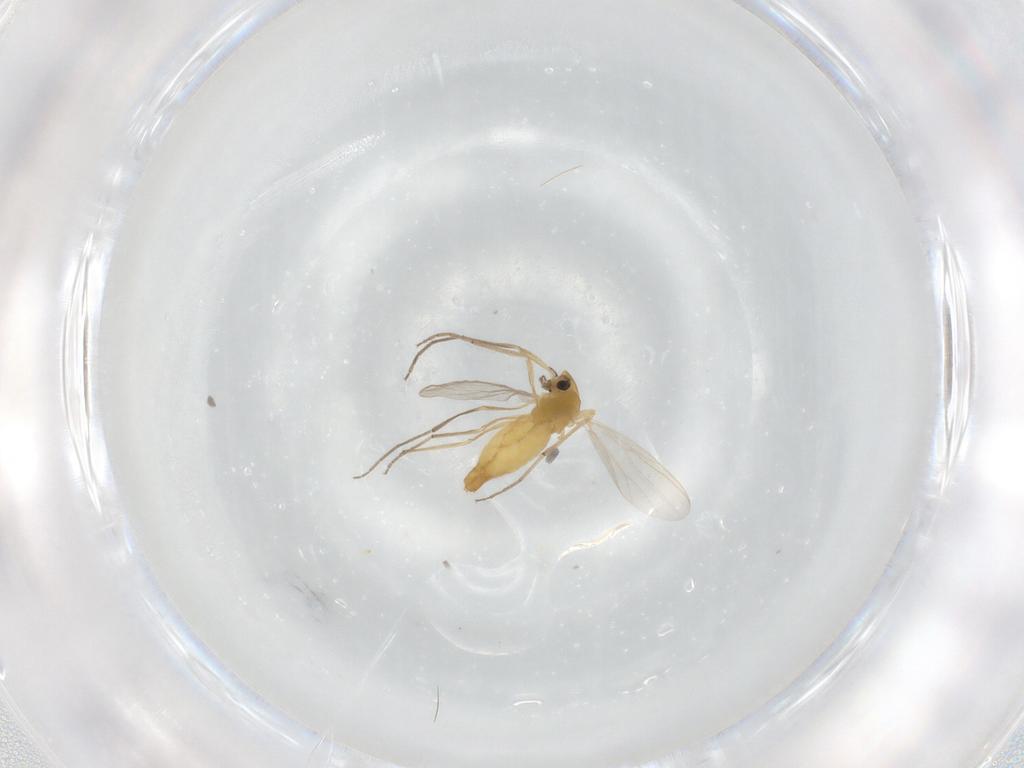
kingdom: Animalia
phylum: Arthropoda
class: Insecta
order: Diptera
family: Chironomidae
